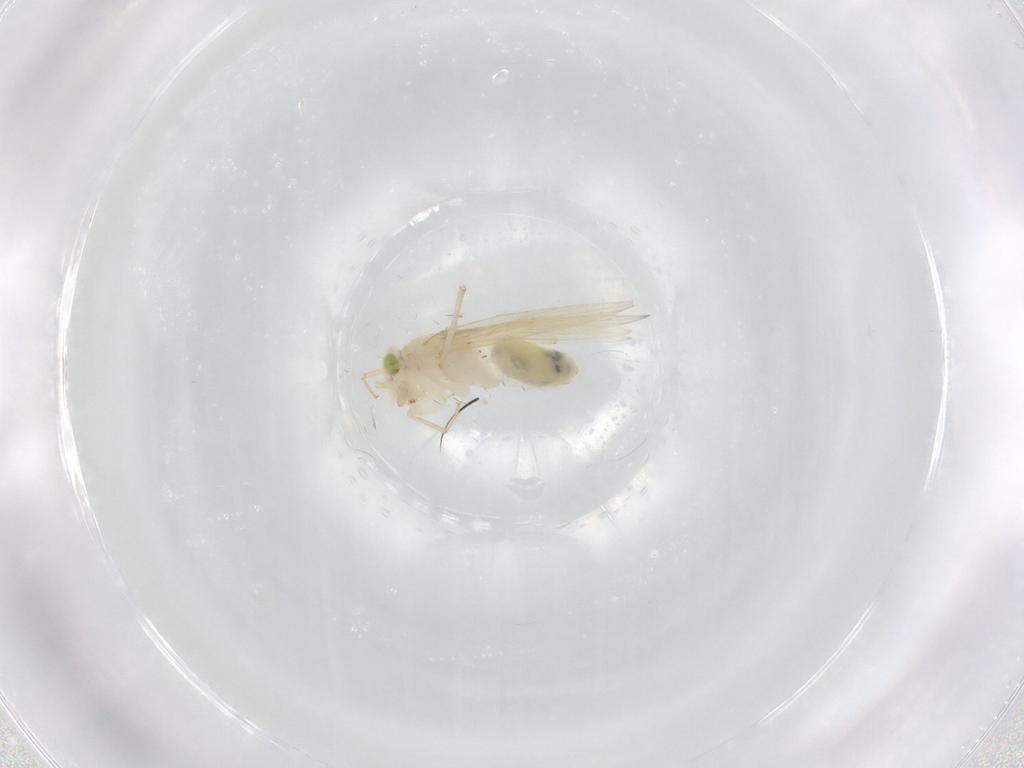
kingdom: Animalia
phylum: Arthropoda
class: Insecta
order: Psocodea
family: Lepidopsocidae
